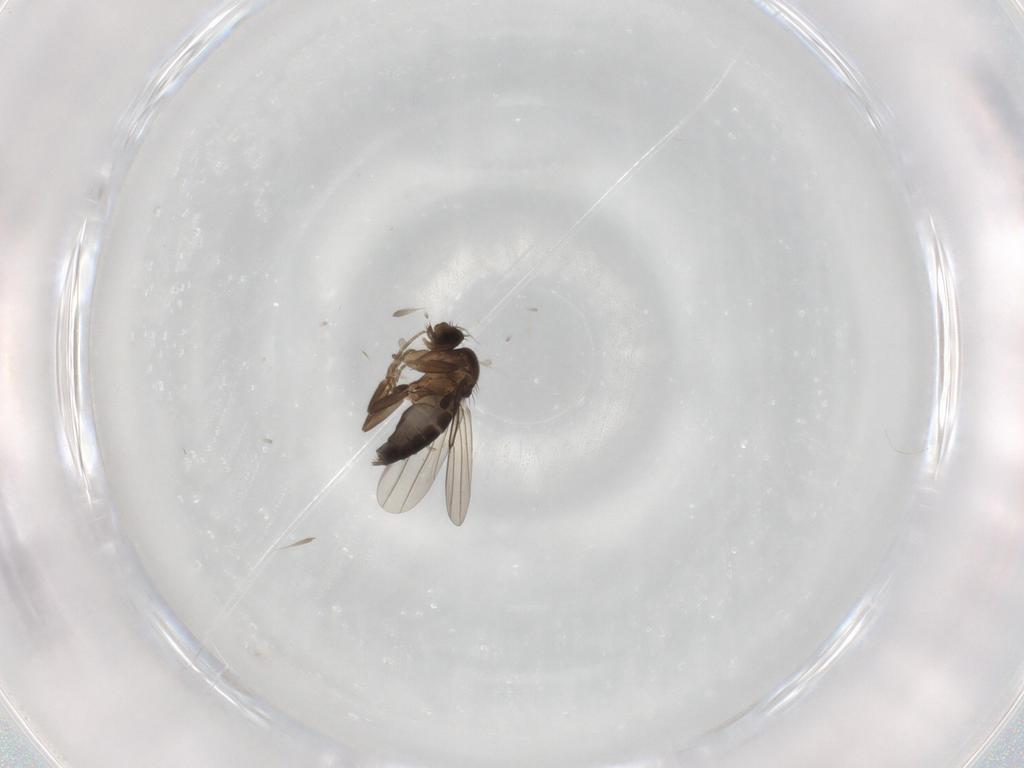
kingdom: Animalia
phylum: Arthropoda
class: Insecta
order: Diptera
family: Phoridae
